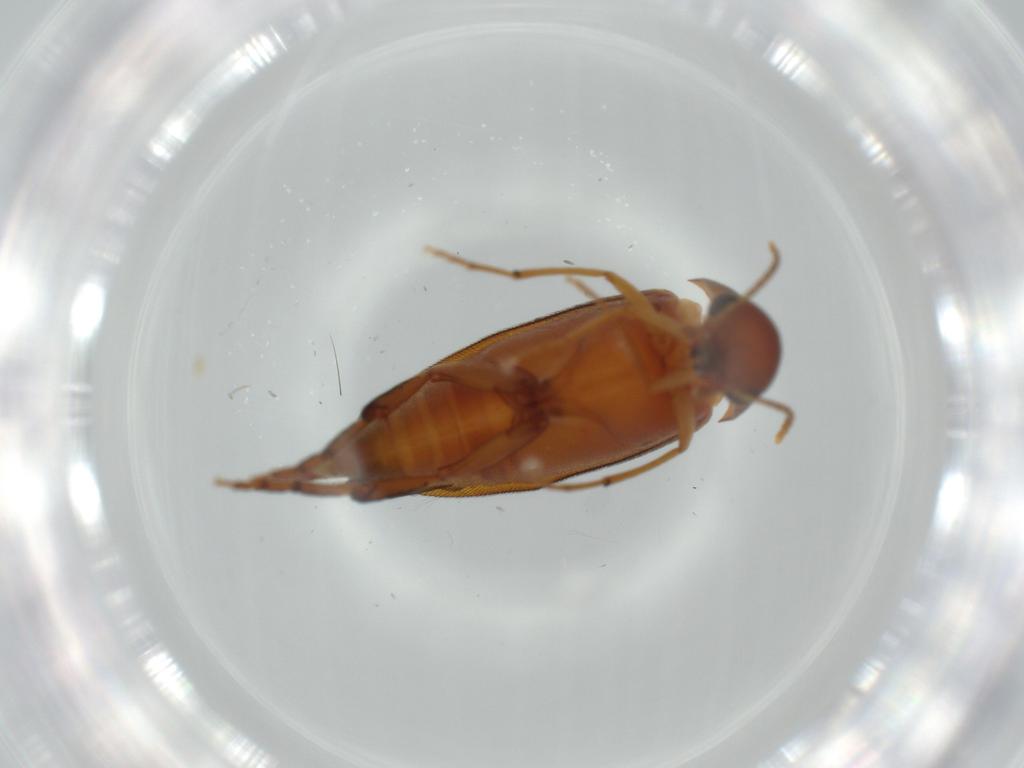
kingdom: Animalia
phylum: Arthropoda
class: Insecta
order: Coleoptera
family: Mordellidae
